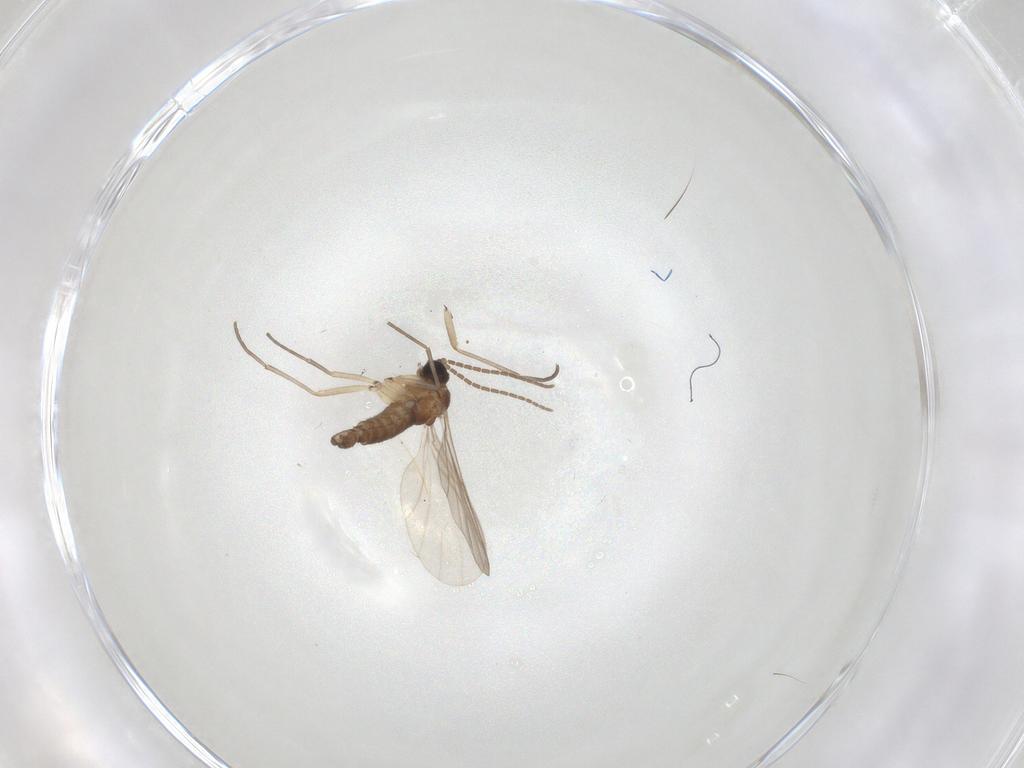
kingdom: Animalia
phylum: Arthropoda
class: Insecta
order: Diptera
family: Sciaridae
